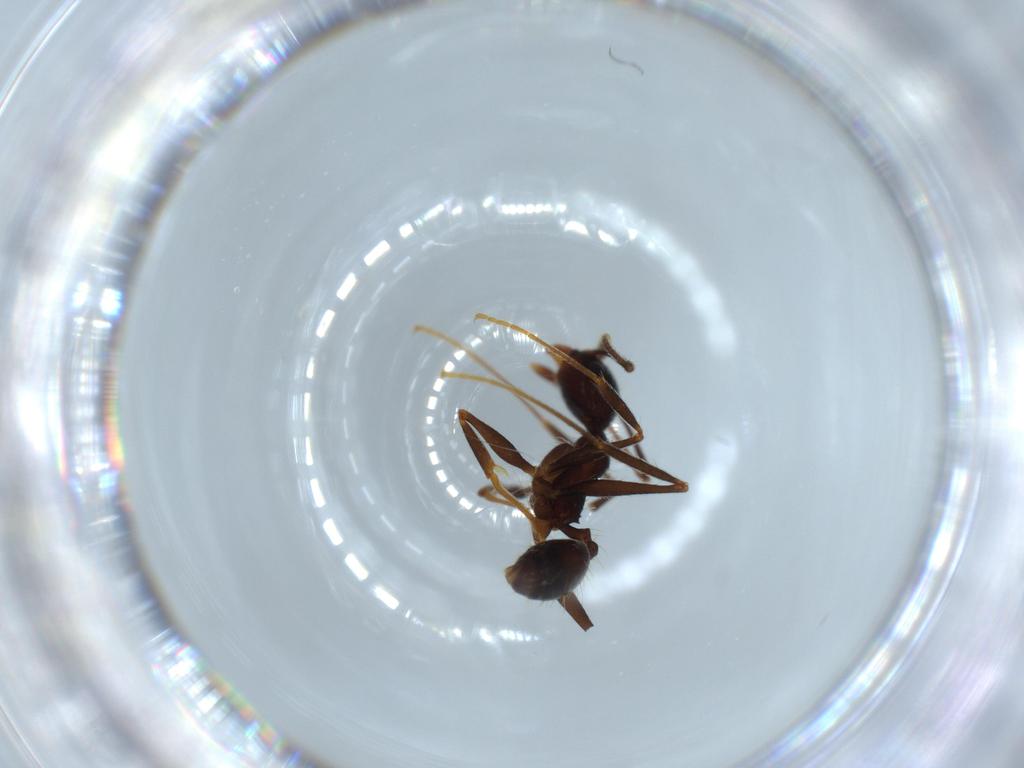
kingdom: Animalia
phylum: Arthropoda
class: Insecta
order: Hymenoptera
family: Formicidae
